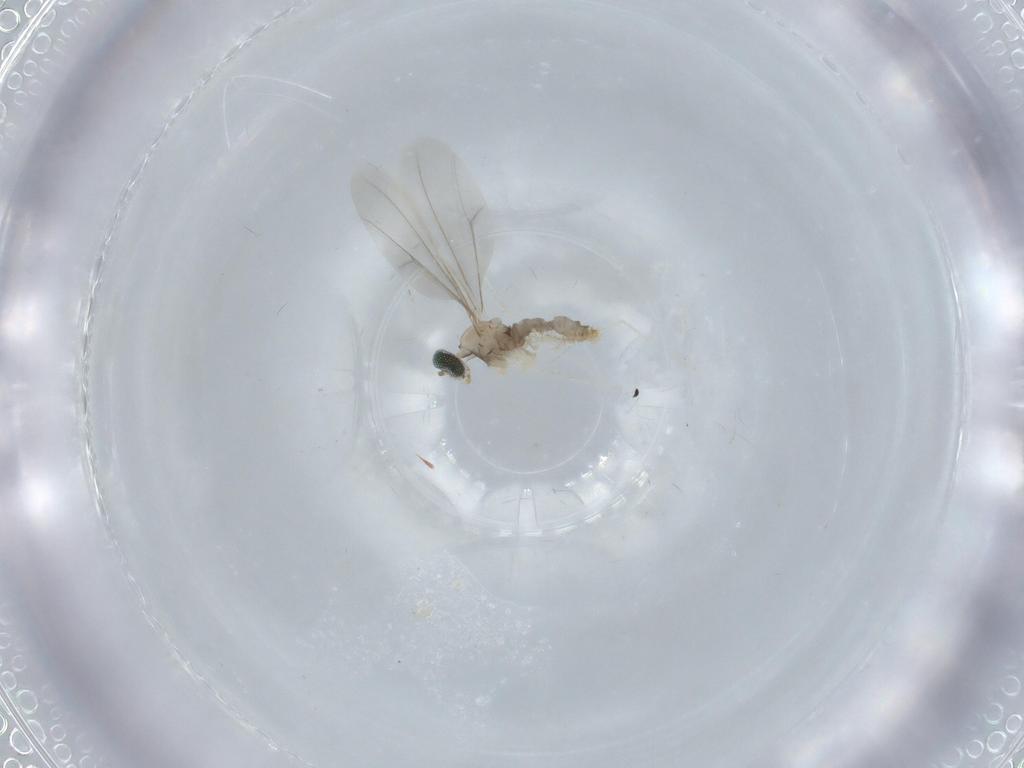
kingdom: Animalia
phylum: Arthropoda
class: Insecta
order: Diptera
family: Cecidomyiidae
